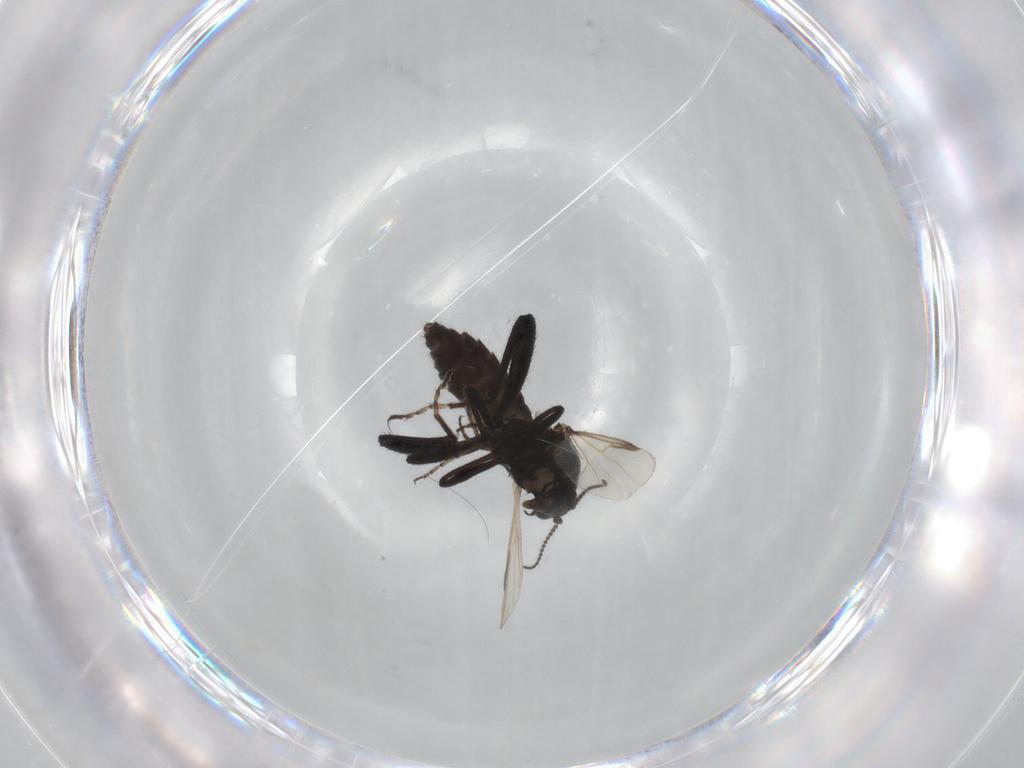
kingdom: Animalia
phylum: Arthropoda
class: Insecta
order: Diptera
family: Ceratopogonidae
